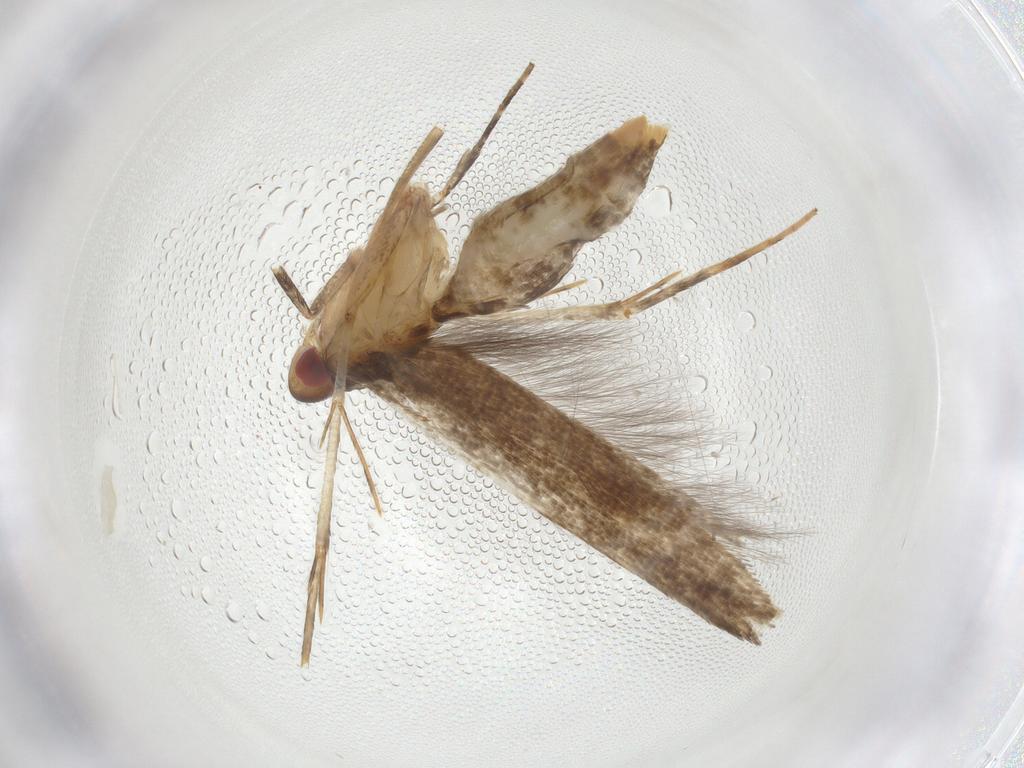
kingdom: Animalia
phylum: Arthropoda
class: Insecta
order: Lepidoptera
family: Cosmopterigidae
